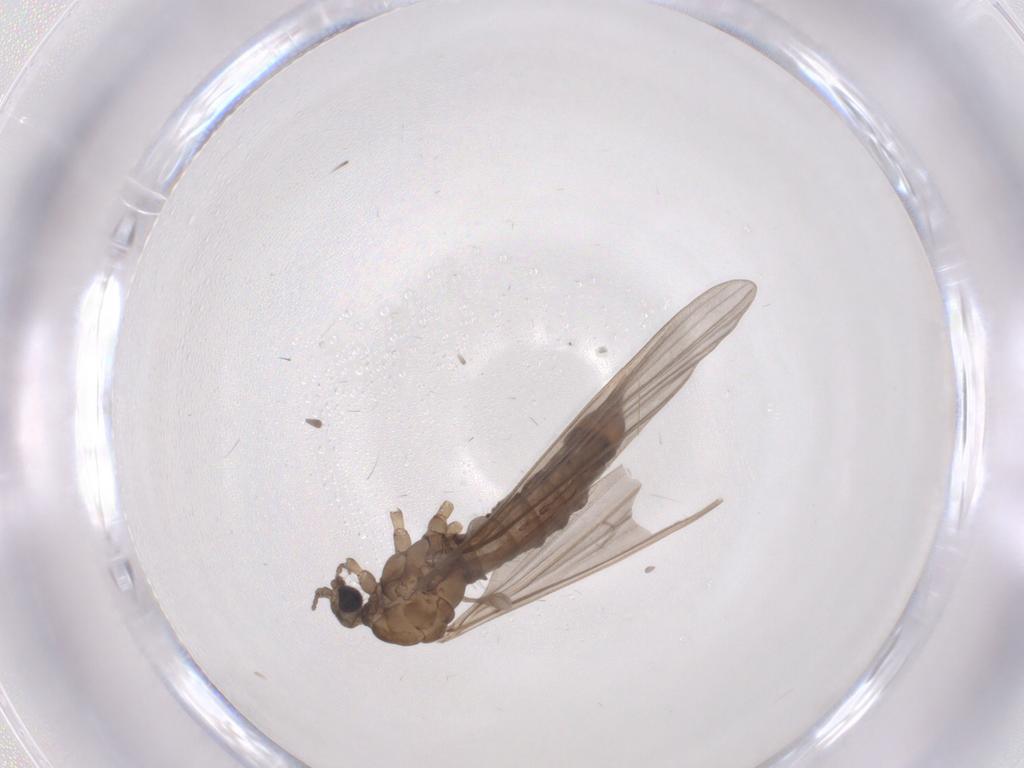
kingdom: Animalia
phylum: Arthropoda
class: Insecta
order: Diptera
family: Limoniidae
